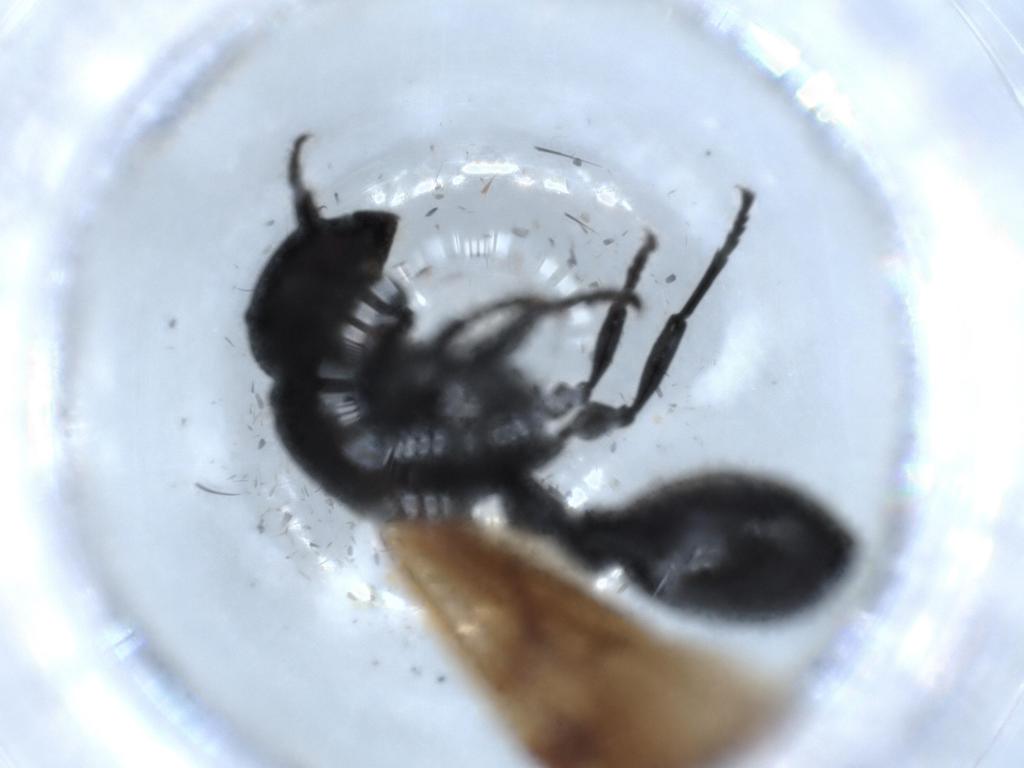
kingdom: Animalia
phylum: Arthropoda
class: Insecta
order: Hymenoptera
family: Formicidae
